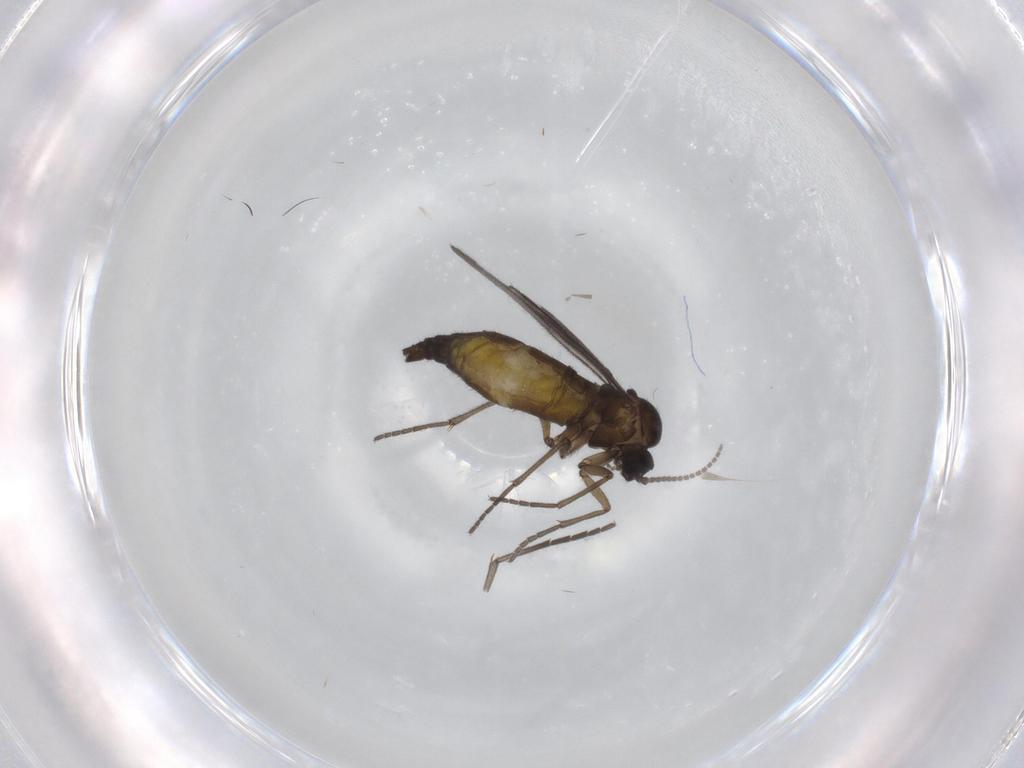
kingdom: Animalia
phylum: Arthropoda
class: Insecta
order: Diptera
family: Sciaridae
